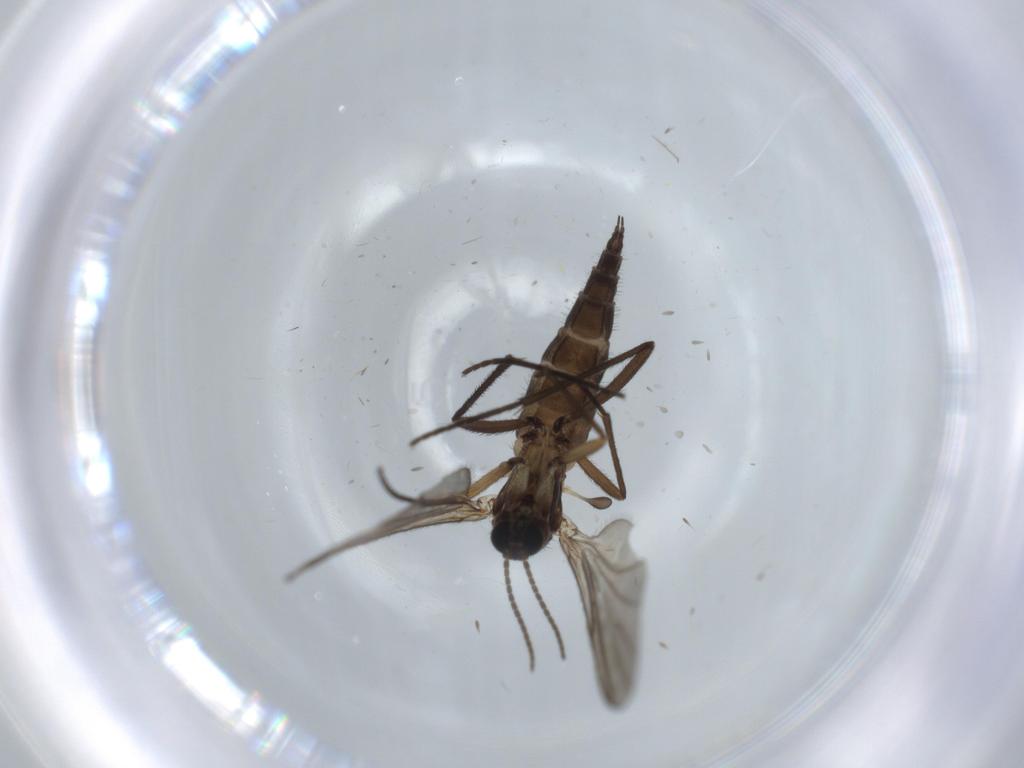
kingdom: Animalia
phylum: Arthropoda
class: Insecta
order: Diptera
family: Sciaridae
